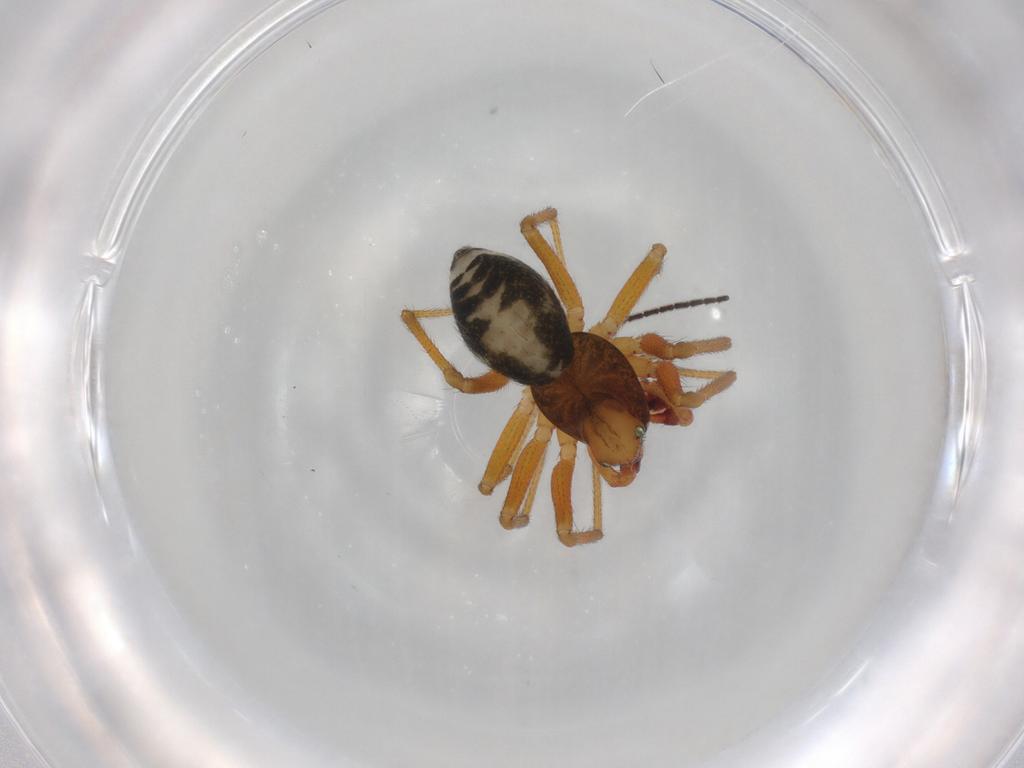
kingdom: Animalia
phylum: Arthropoda
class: Arachnida
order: Araneae
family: Linyphiidae
